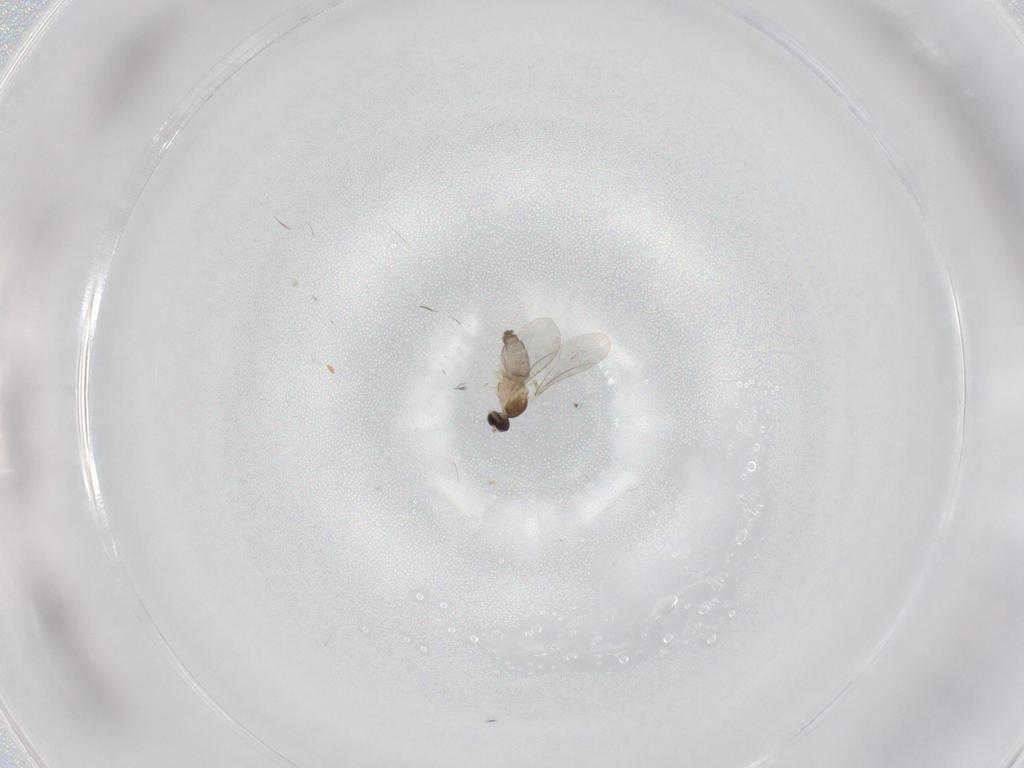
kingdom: Animalia
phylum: Arthropoda
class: Insecta
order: Diptera
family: Cecidomyiidae
